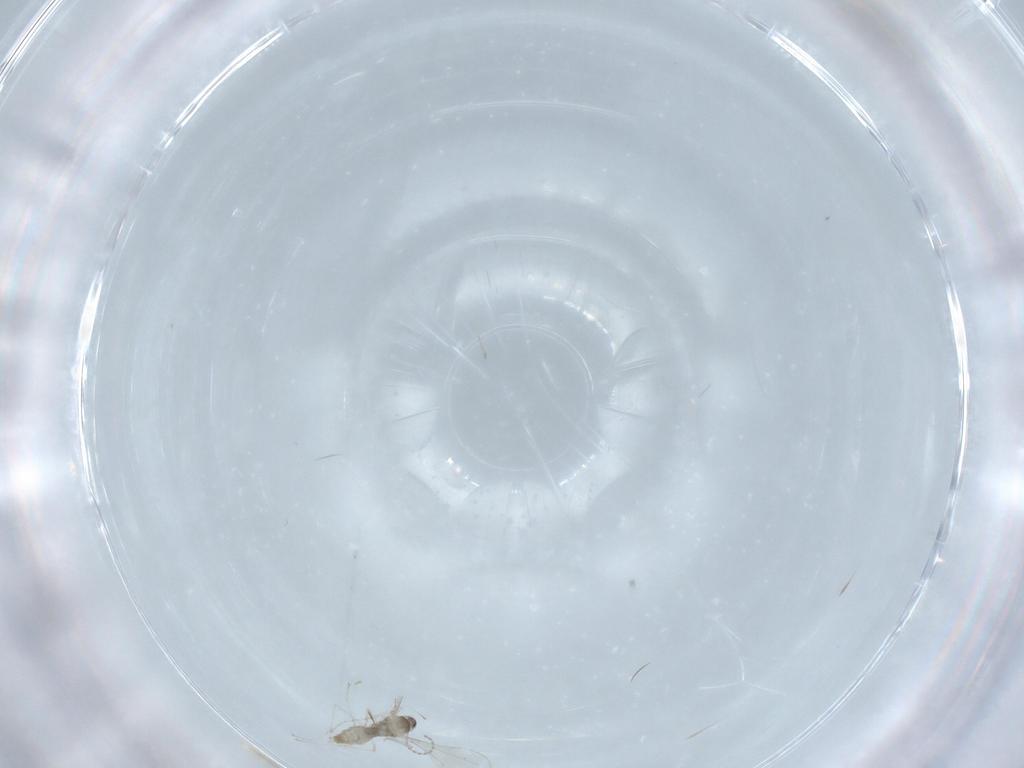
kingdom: Animalia
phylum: Arthropoda
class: Insecta
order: Diptera
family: Cecidomyiidae
